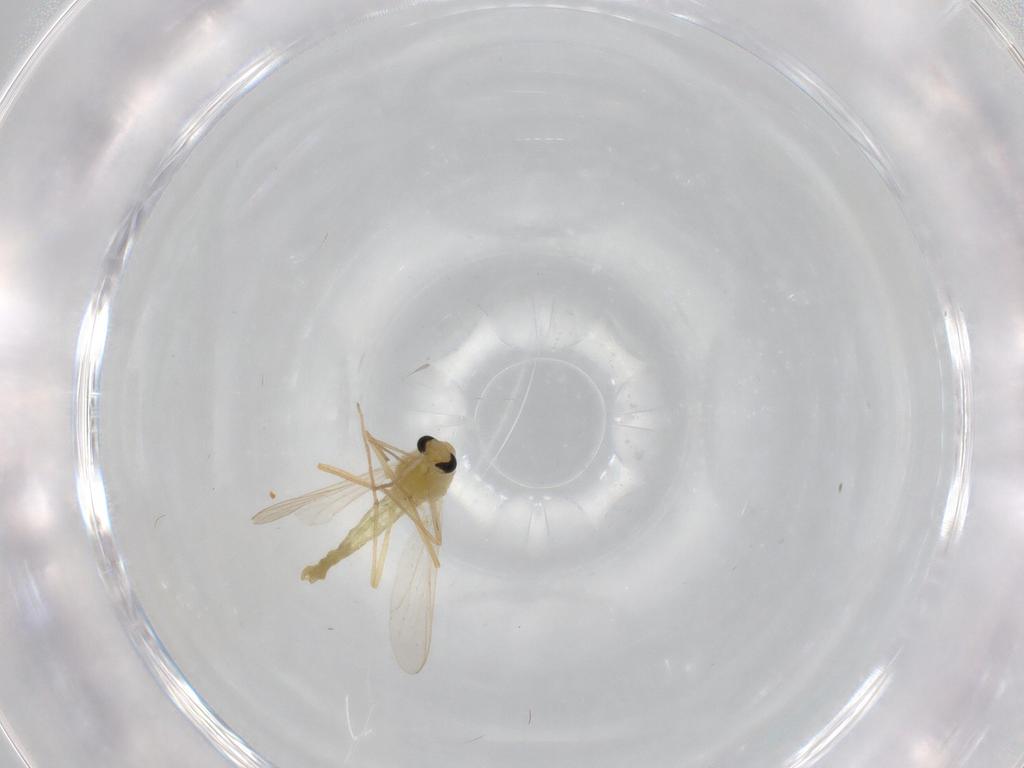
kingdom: Animalia
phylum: Arthropoda
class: Insecta
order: Diptera
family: Chironomidae
